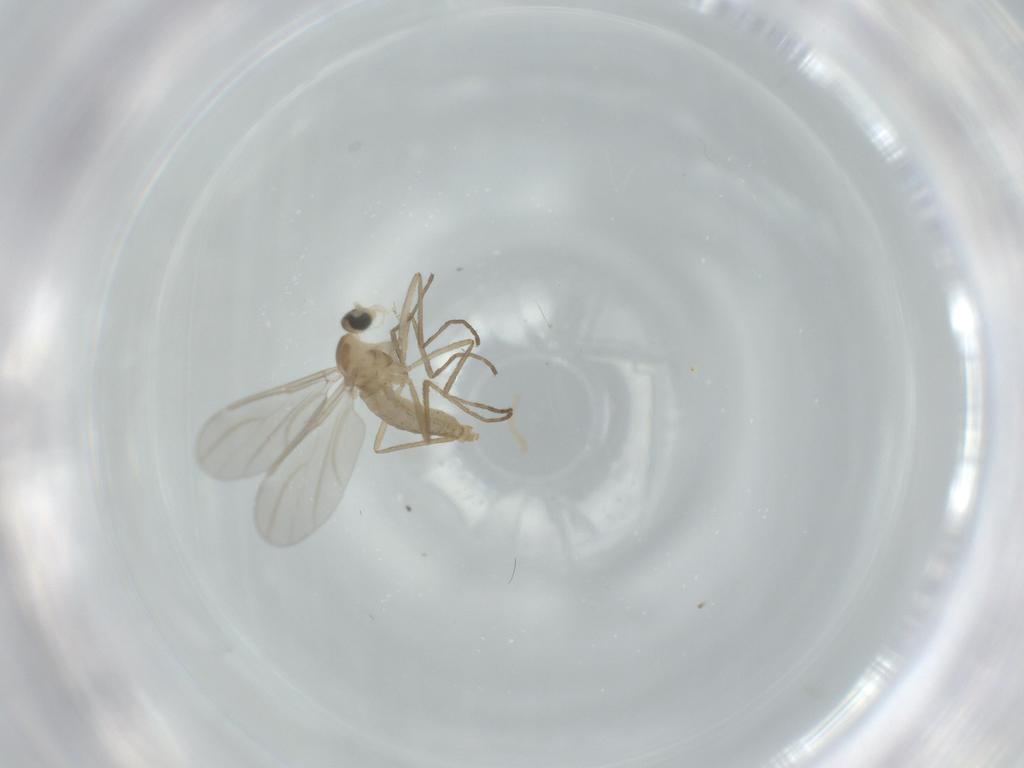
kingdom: Animalia
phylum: Arthropoda
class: Insecta
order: Diptera
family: Cecidomyiidae
